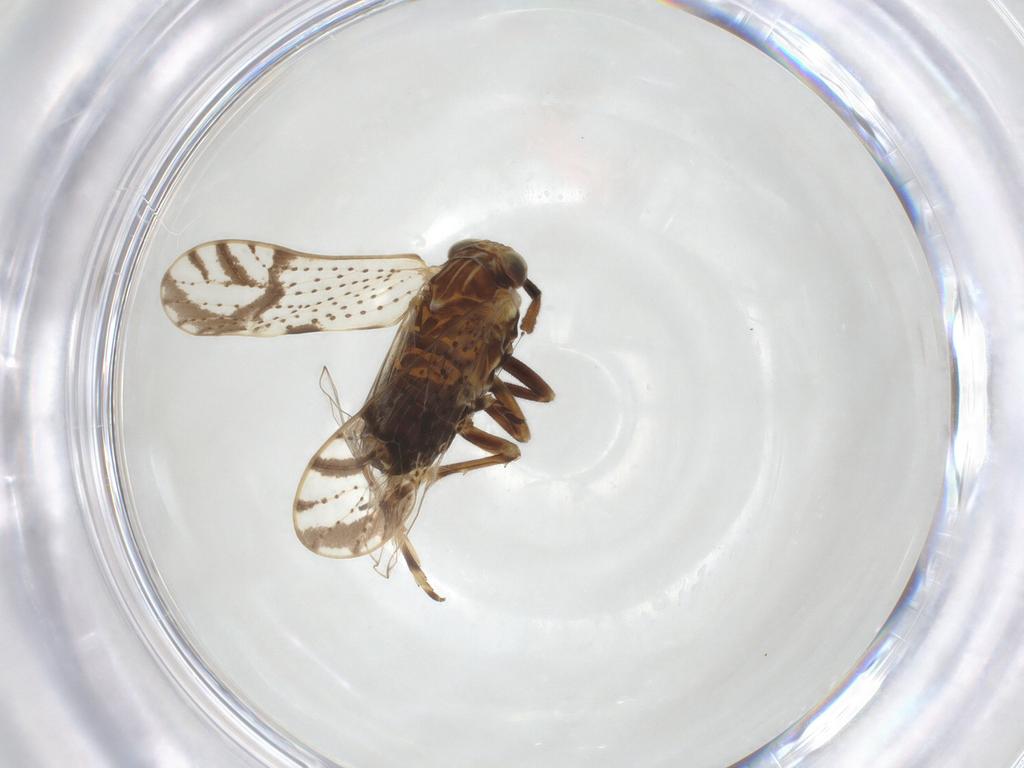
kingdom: Animalia
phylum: Arthropoda
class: Insecta
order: Hemiptera
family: Delphacidae
